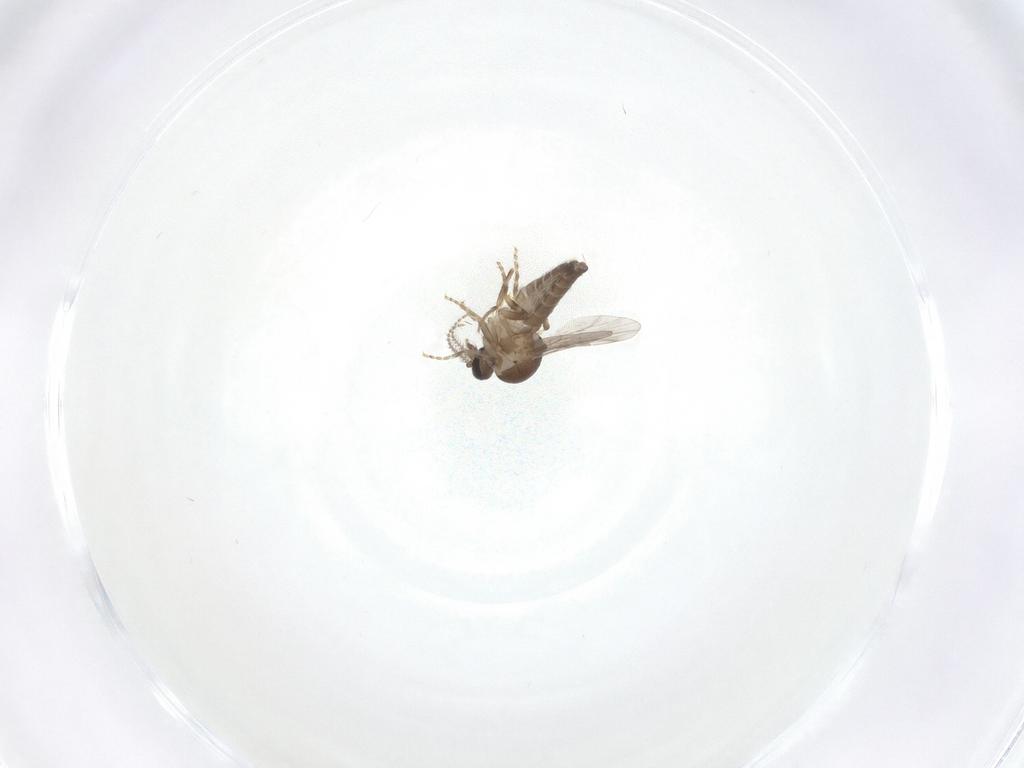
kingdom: Animalia
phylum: Arthropoda
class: Insecta
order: Diptera
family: Ceratopogonidae
